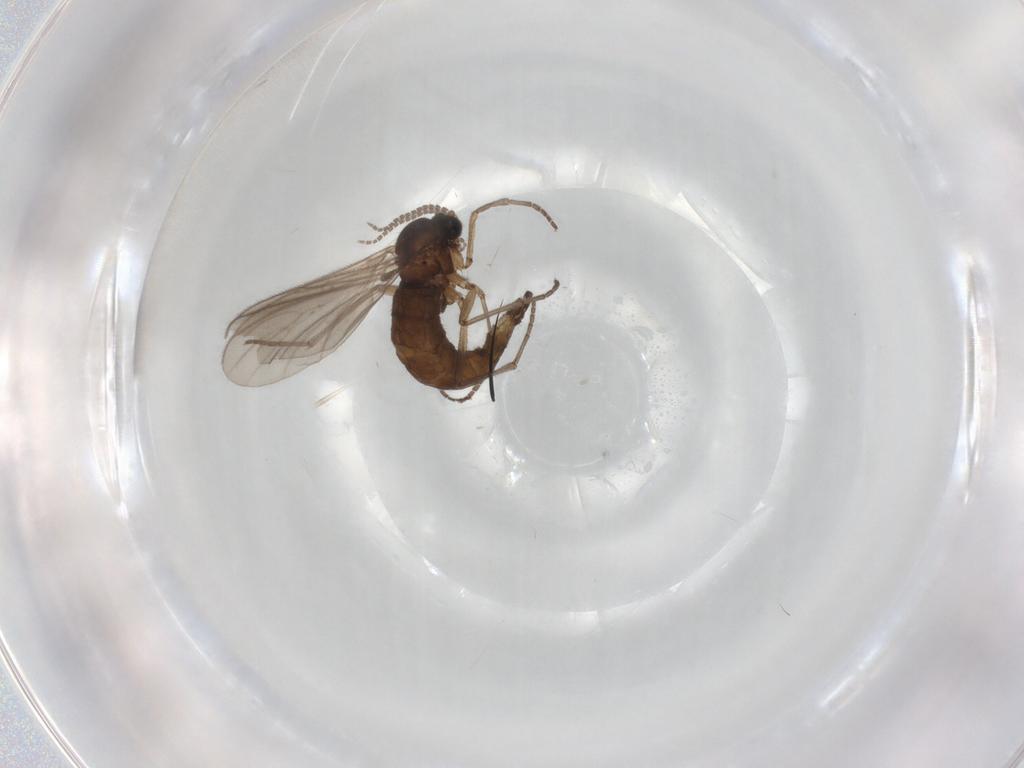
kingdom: Animalia
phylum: Arthropoda
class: Insecta
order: Diptera
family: Sciaridae
